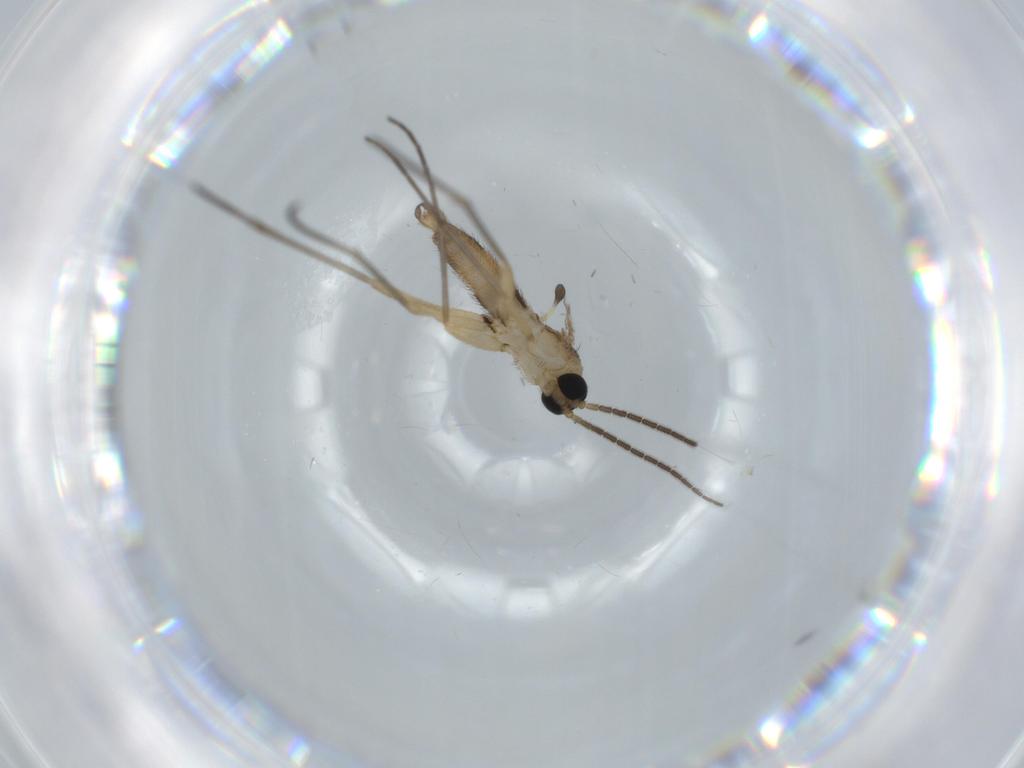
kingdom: Animalia
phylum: Arthropoda
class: Insecta
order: Diptera
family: Sciaridae
